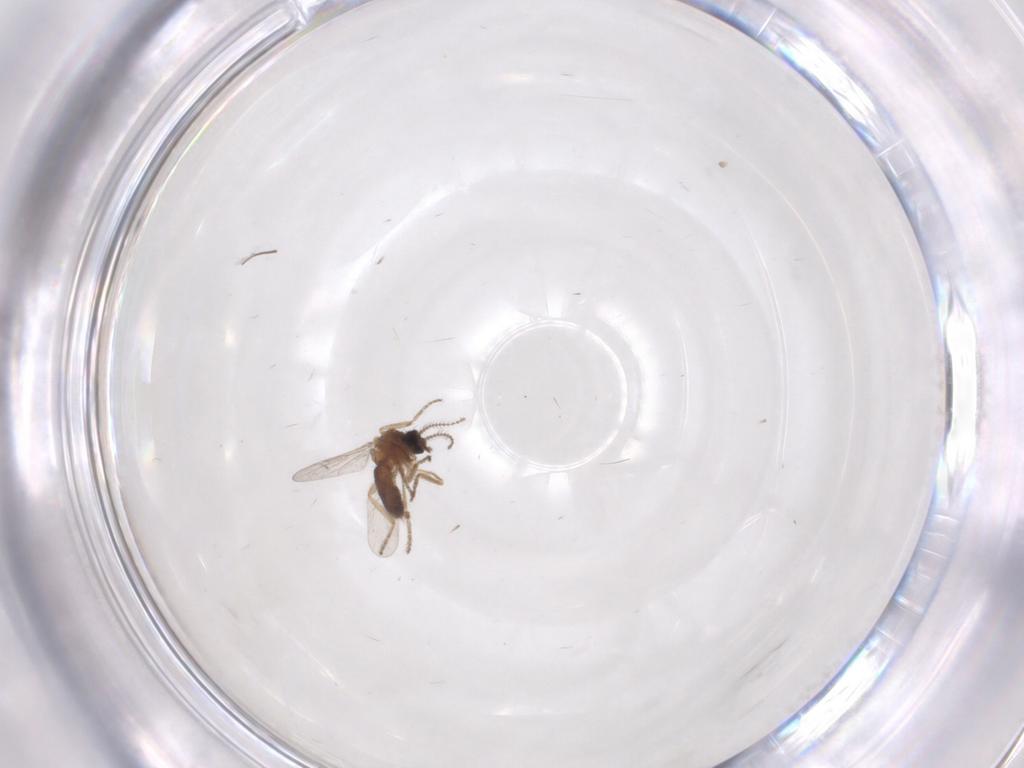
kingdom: Animalia
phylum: Arthropoda
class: Insecta
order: Diptera
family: Ceratopogonidae
